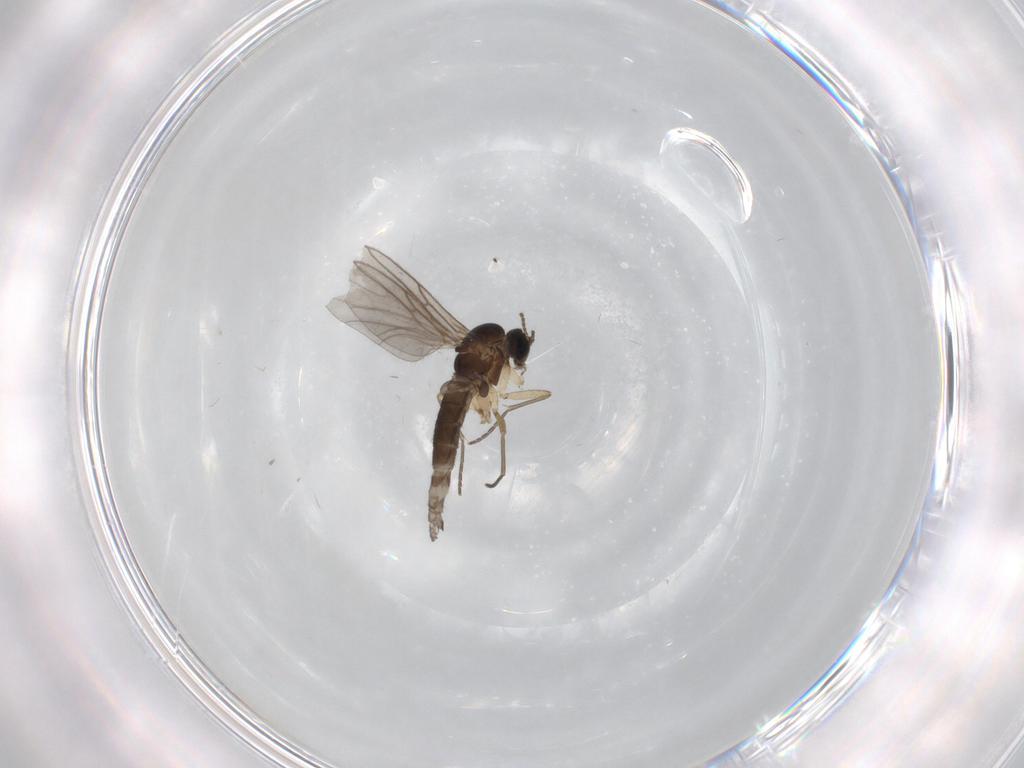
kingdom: Animalia
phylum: Arthropoda
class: Insecta
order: Diptera
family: Sciaridae
